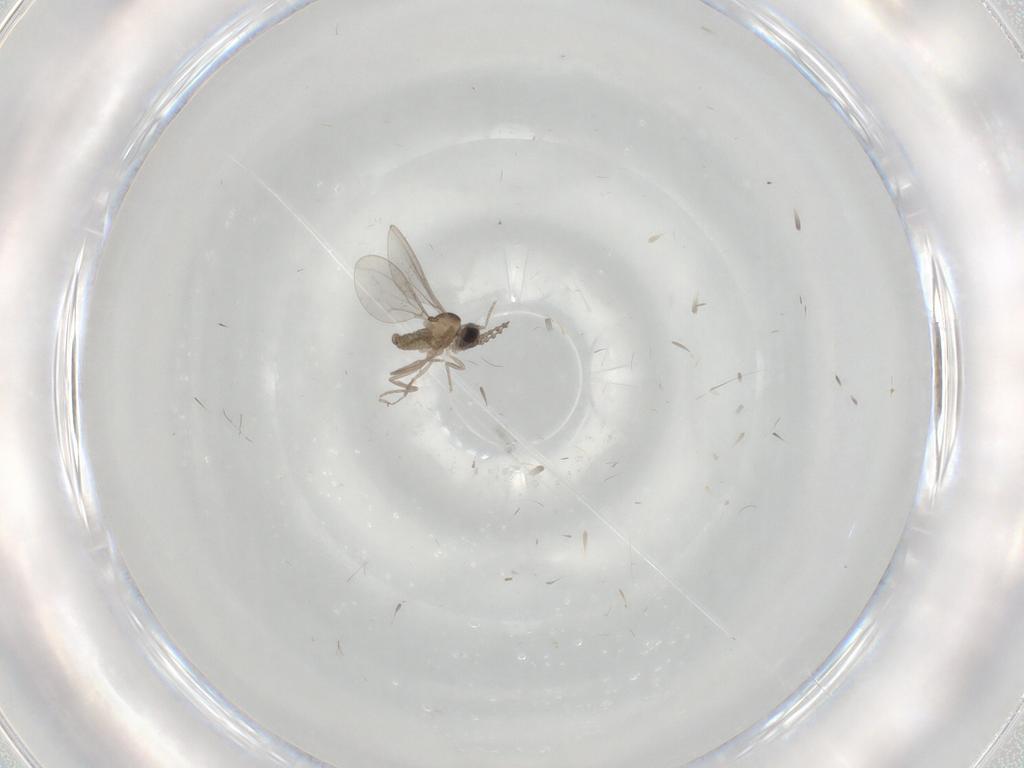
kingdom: Animalia
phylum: Arthropoda
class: Insecta
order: Diptera
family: Cecidomyiidae
